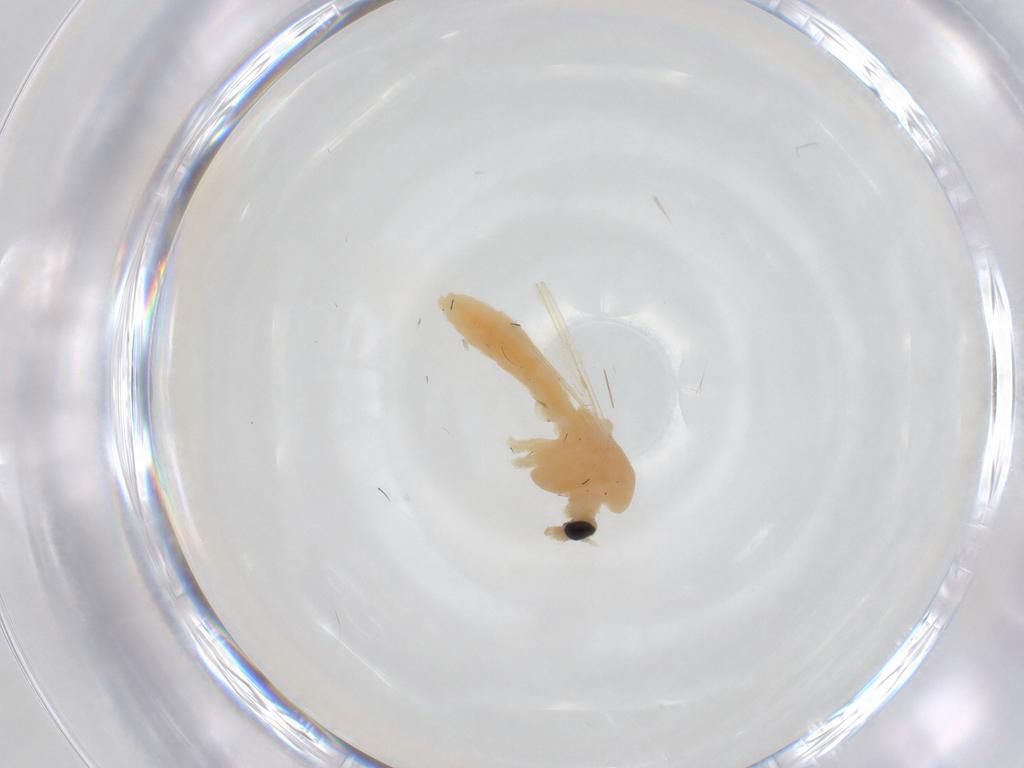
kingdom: Animalia
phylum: Arthropoda
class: Insecta
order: Diptera
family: Chironomidae
